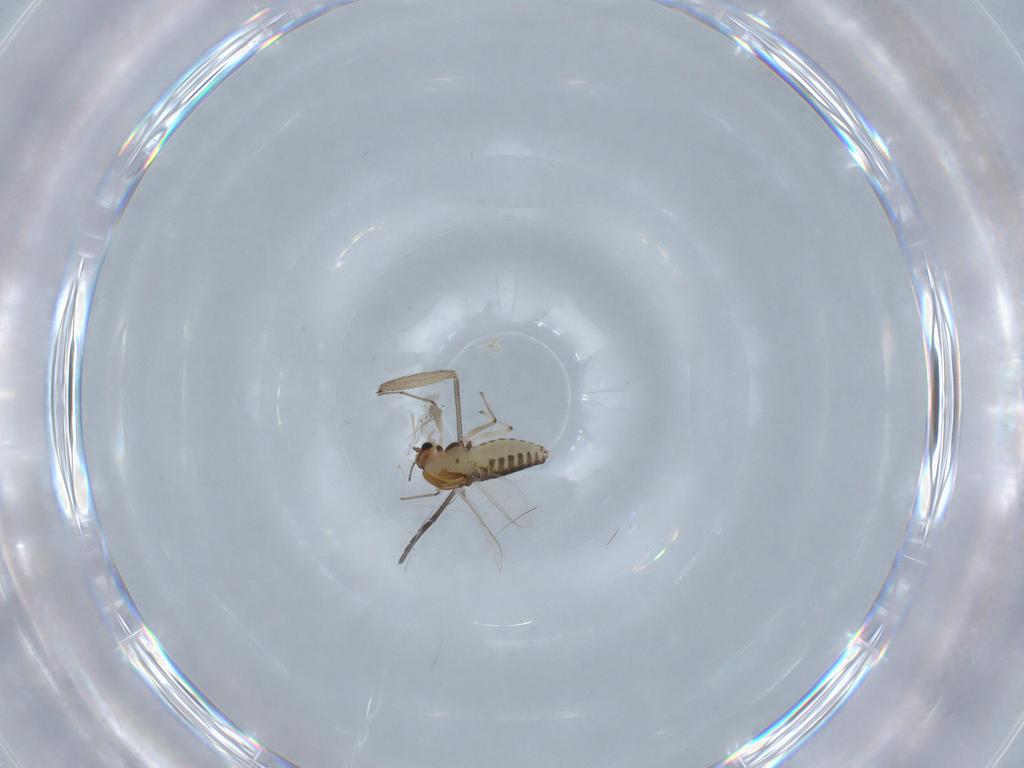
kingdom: Animalia
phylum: Arthropoda
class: Insecta
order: Diptera
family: Chironomidae
